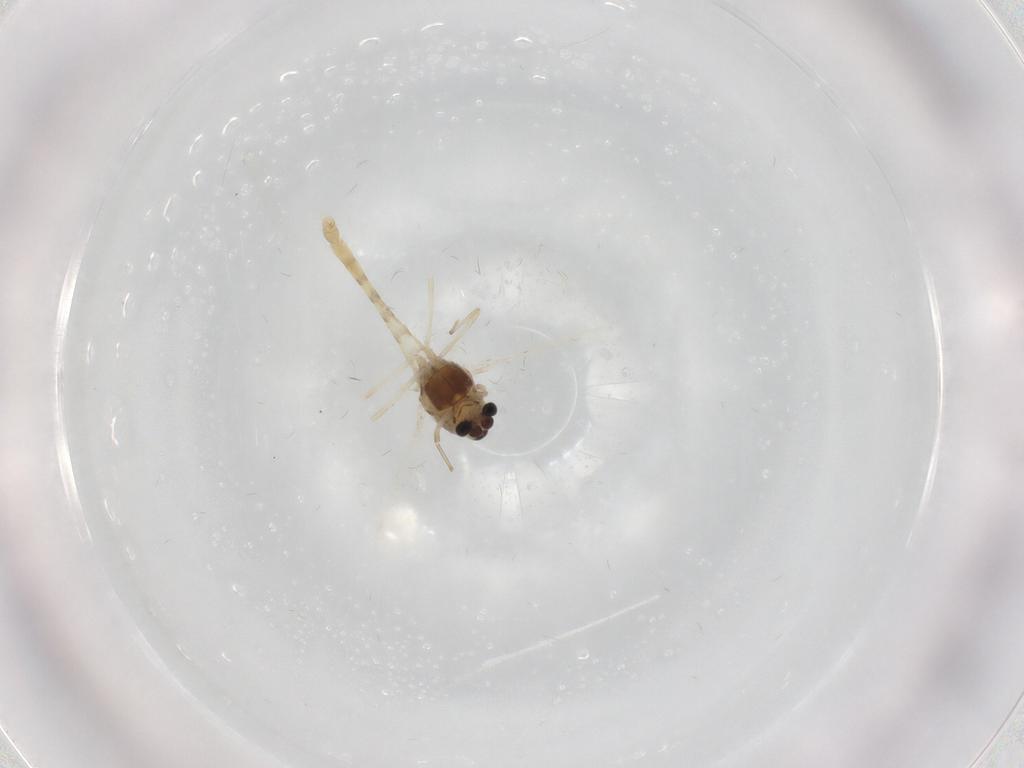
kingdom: Animalia
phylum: Arthropoda
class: Insecta
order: Diptera
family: Chironomidae
